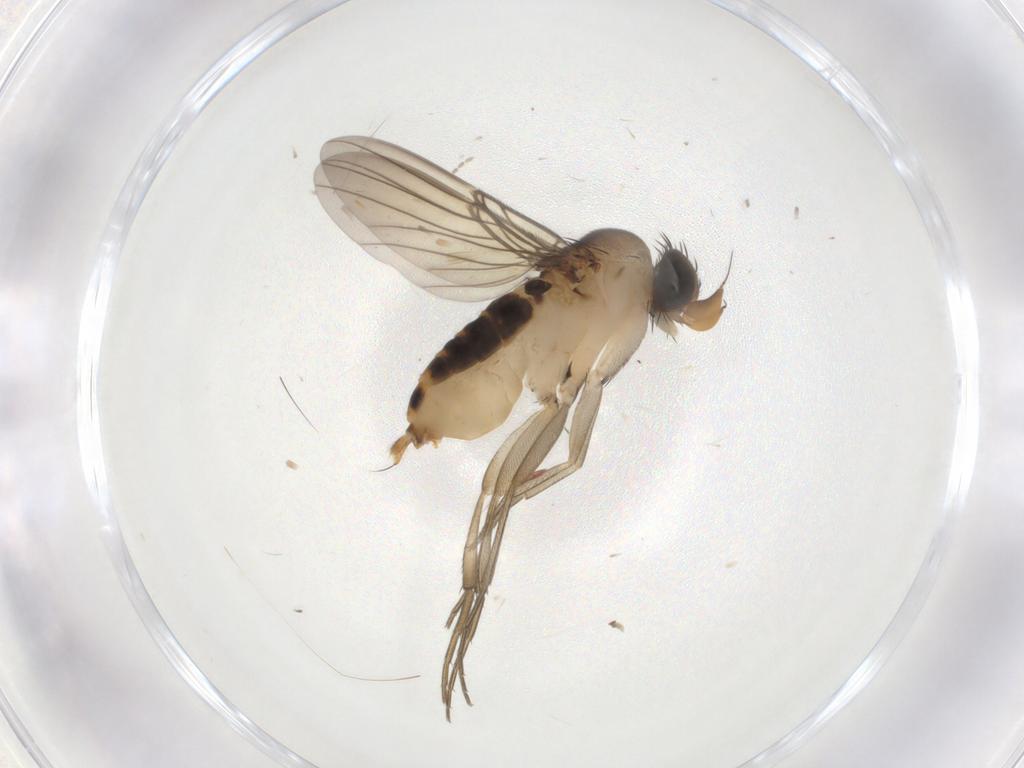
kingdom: Animalia
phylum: Arthropoda
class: Insecta
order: Diptera
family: Phoridae
